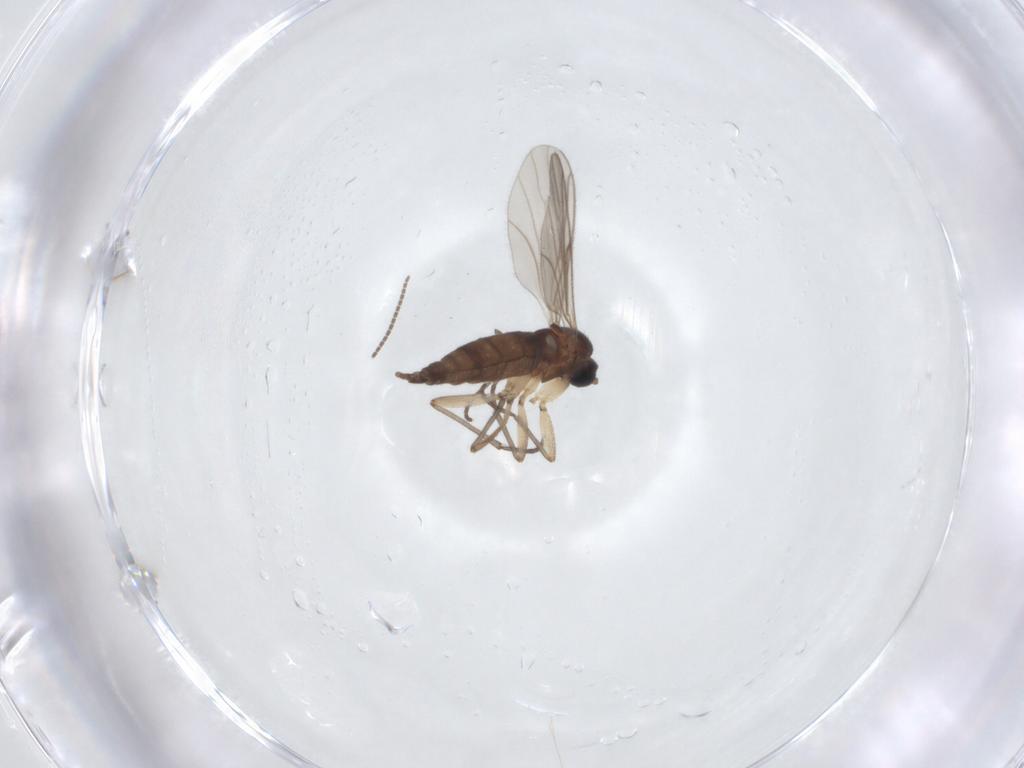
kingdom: Animalia
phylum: Arthropoda
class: Insecta
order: Diptera
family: Sciaridae
